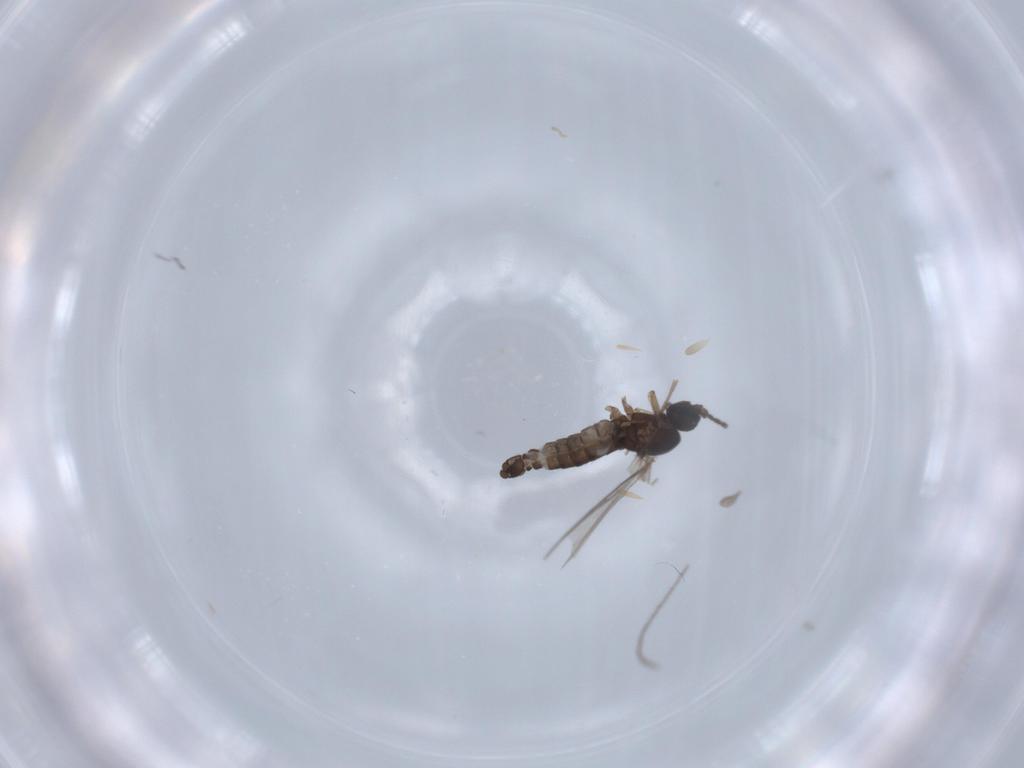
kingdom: Animalia
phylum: Arthropoda
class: Insecta
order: Diptera
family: Sciaridae
